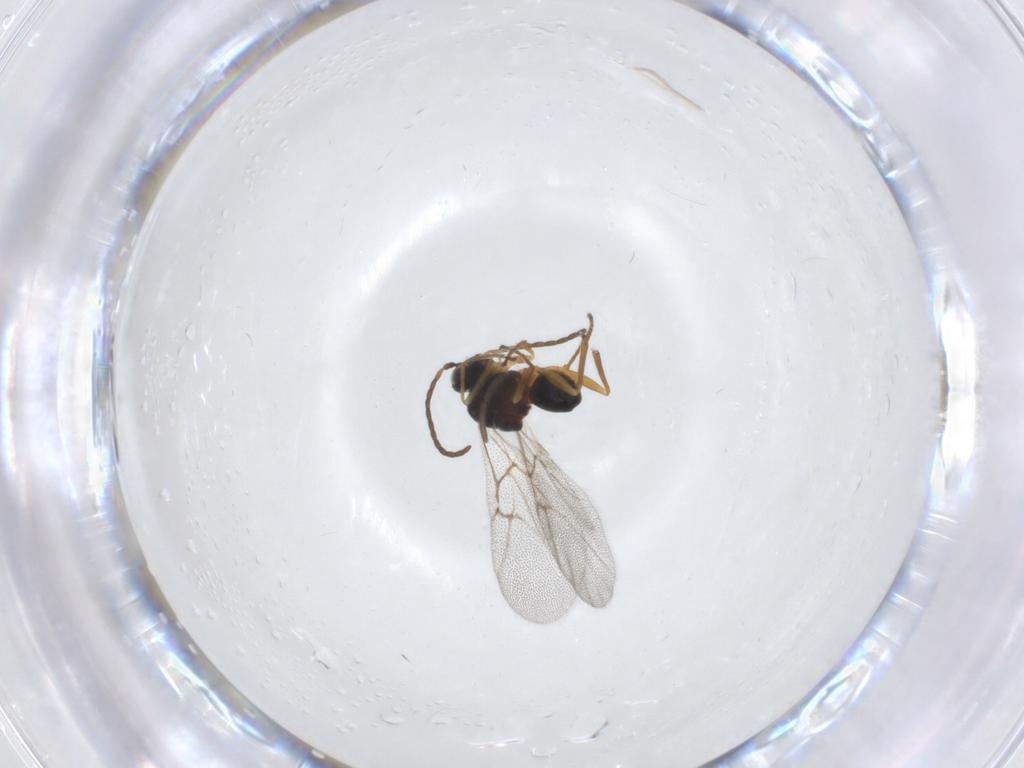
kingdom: Animalia
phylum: Arthropoda
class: Insecta
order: Hymenoptera
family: Cynipidae
